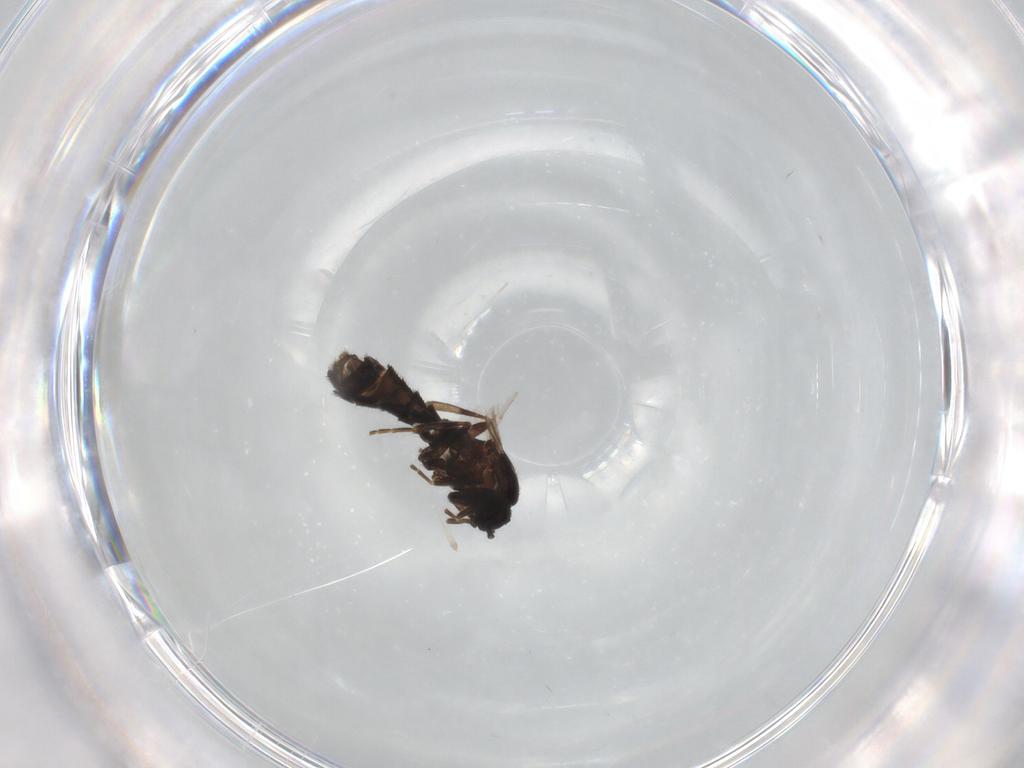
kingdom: Animalia
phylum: Arthropoda
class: Insecta
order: Diptera
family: Scatopsidae
